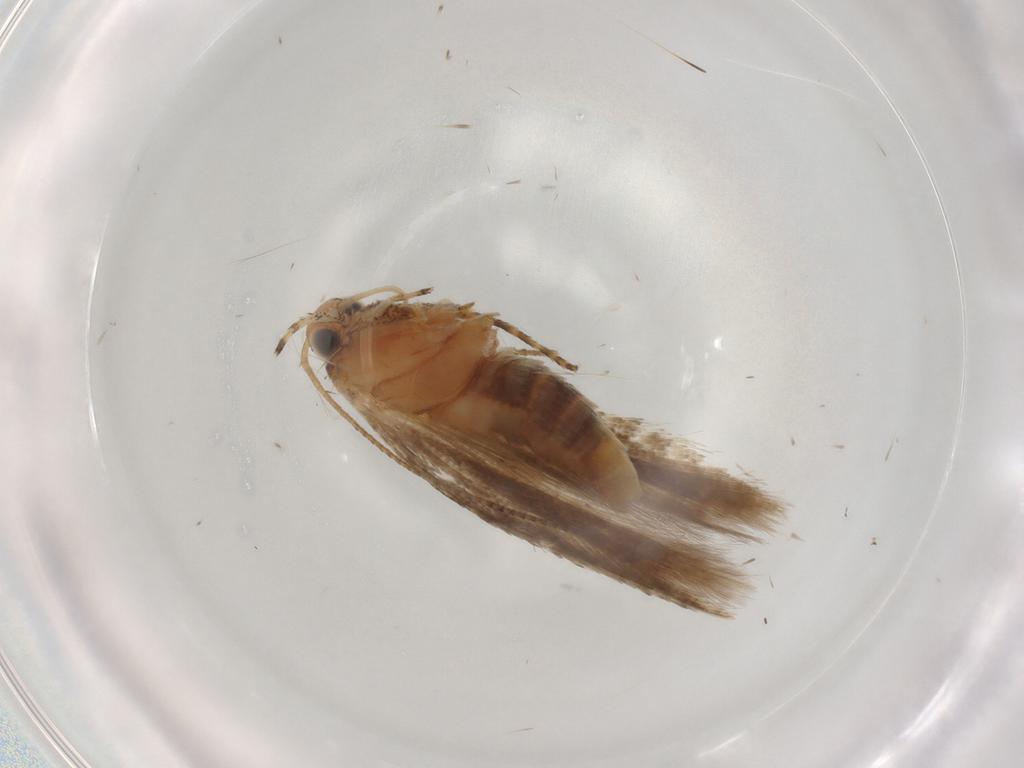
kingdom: Animalia
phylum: Arthropoda
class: Insecta
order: Lepidoptera
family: Gelechiidae
